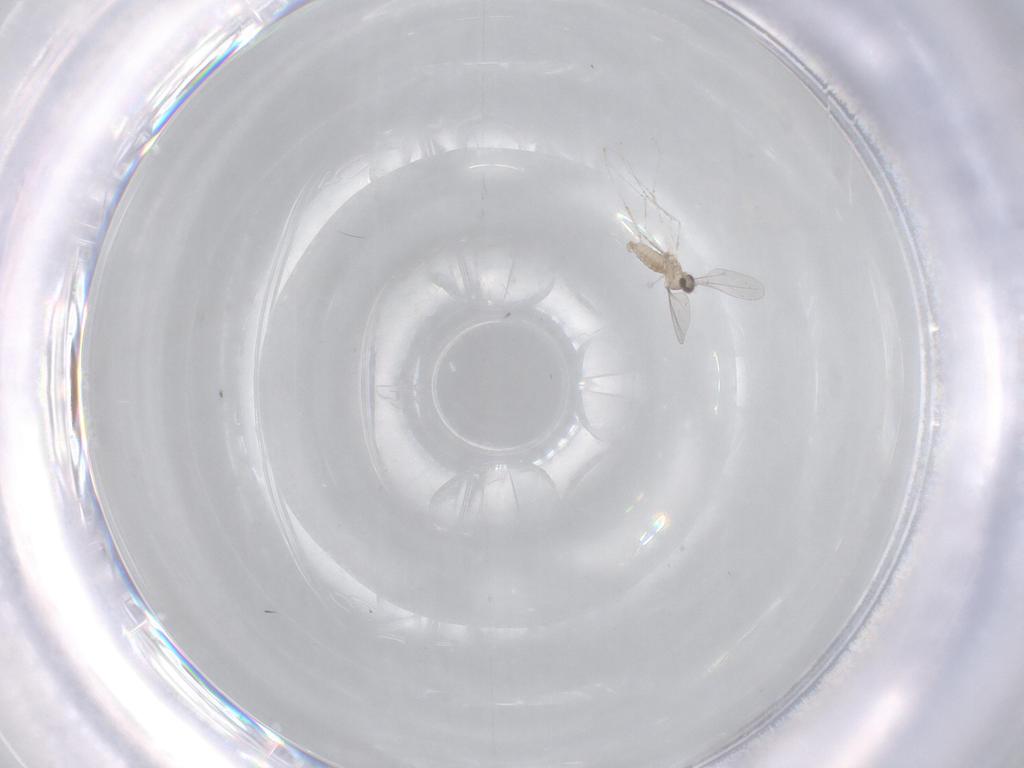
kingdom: Animalia
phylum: Arthropoda
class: Insecta
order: Diptera
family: Cecidomyiidae
